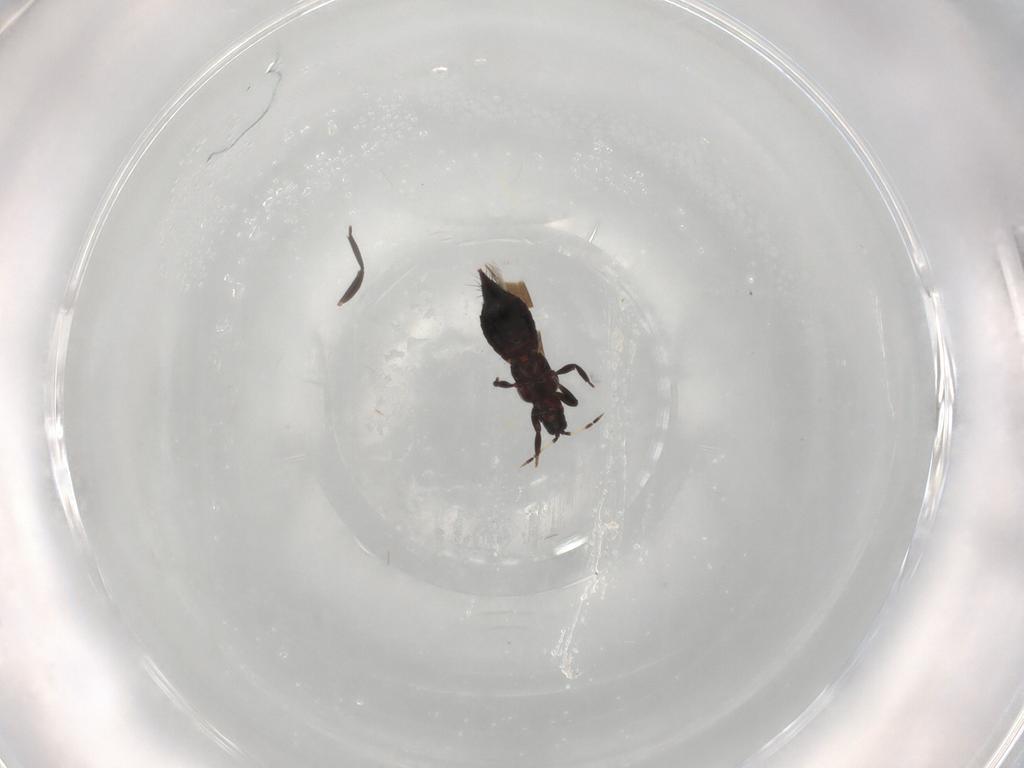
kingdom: Animalia
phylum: Arthropoda
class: Insecta
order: Thysanoptera
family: Aeolothripidae
